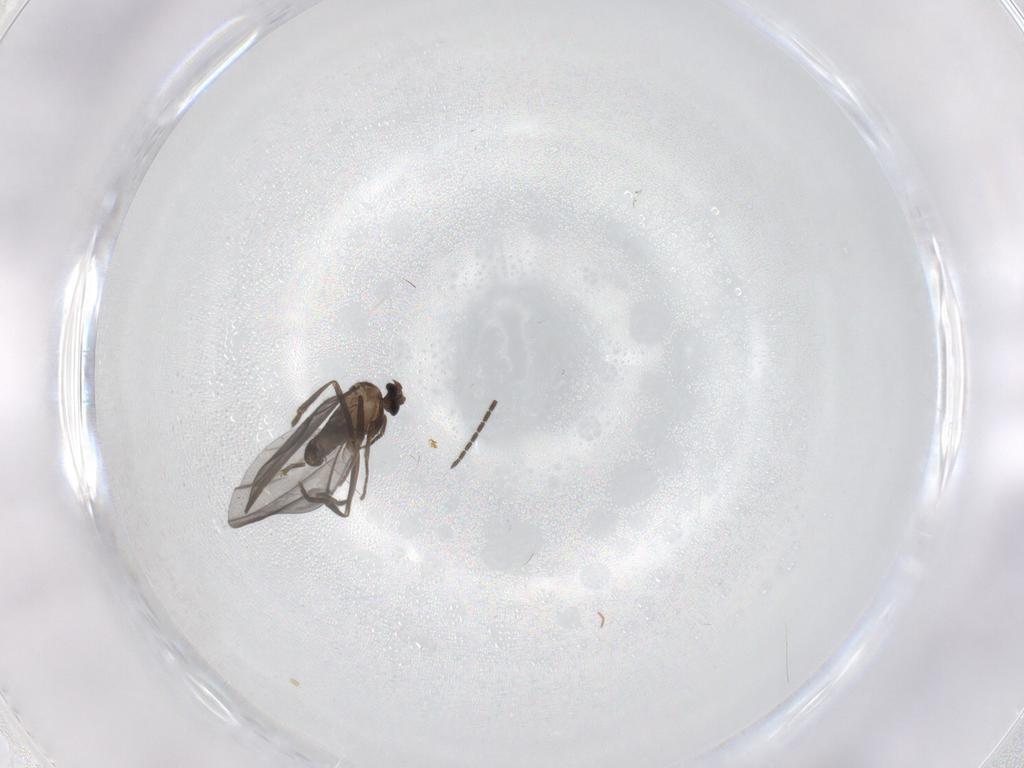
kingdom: Animalia
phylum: Arthropoda
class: Insecta
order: Diptera
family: Phoridae
